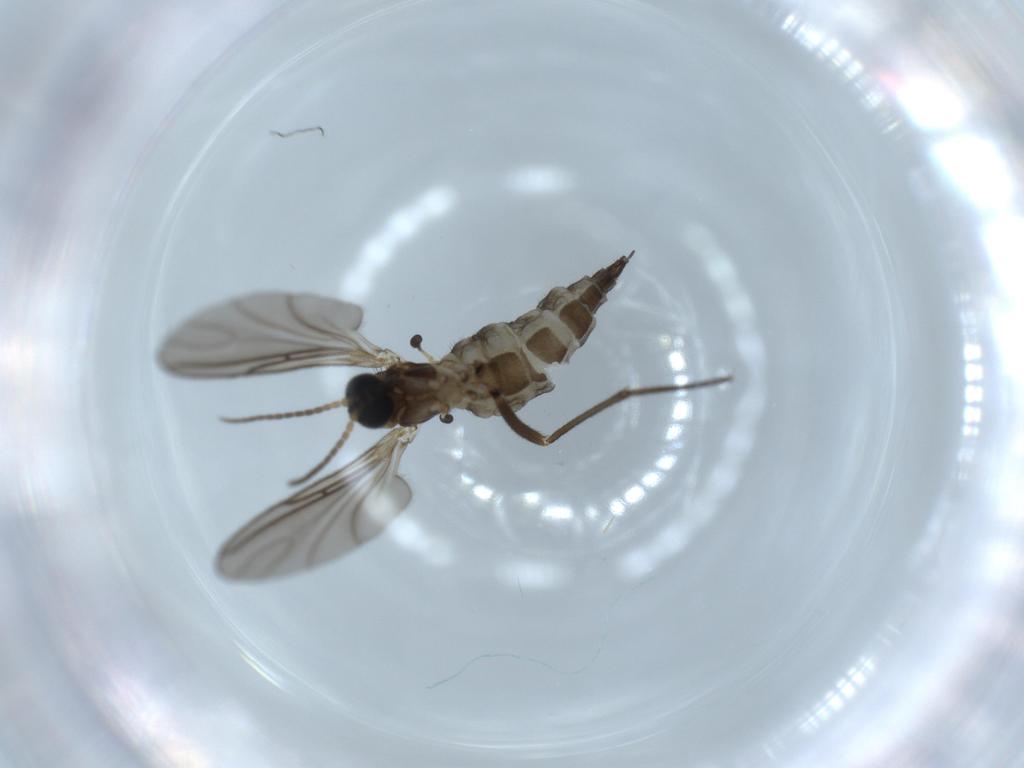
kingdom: Animalia
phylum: Arthropoda
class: Insecta
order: Diptera
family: Sciaridae
